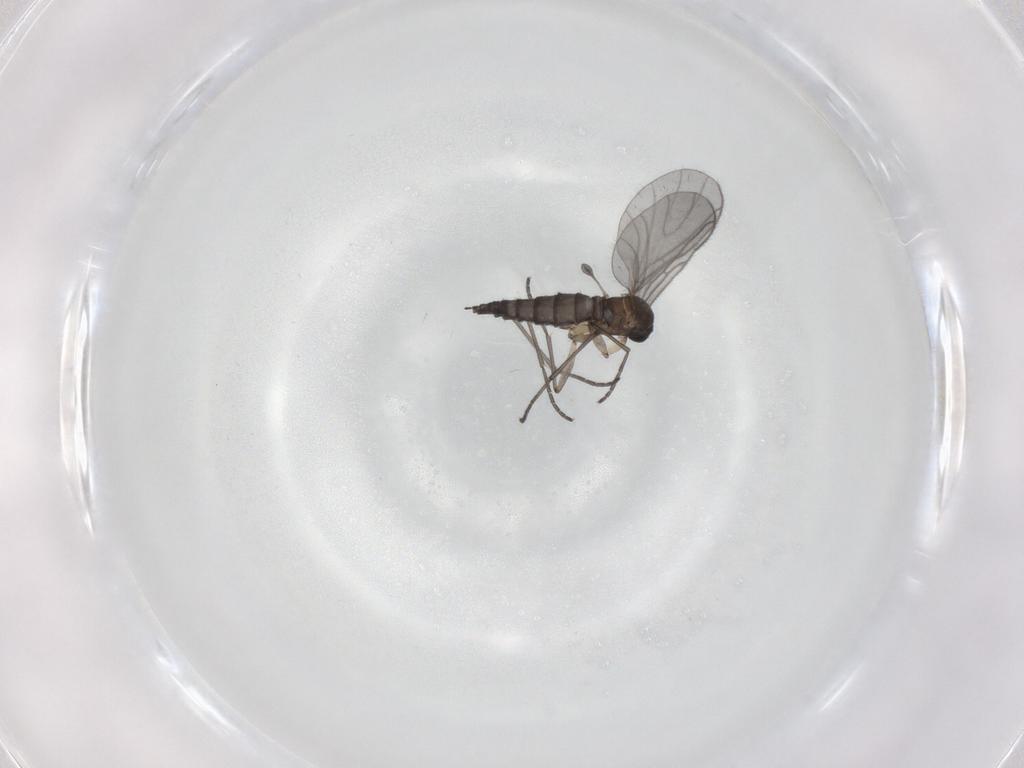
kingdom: Animalia
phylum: Arthropoda
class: Insecta
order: Diptera
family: Sciaridae
